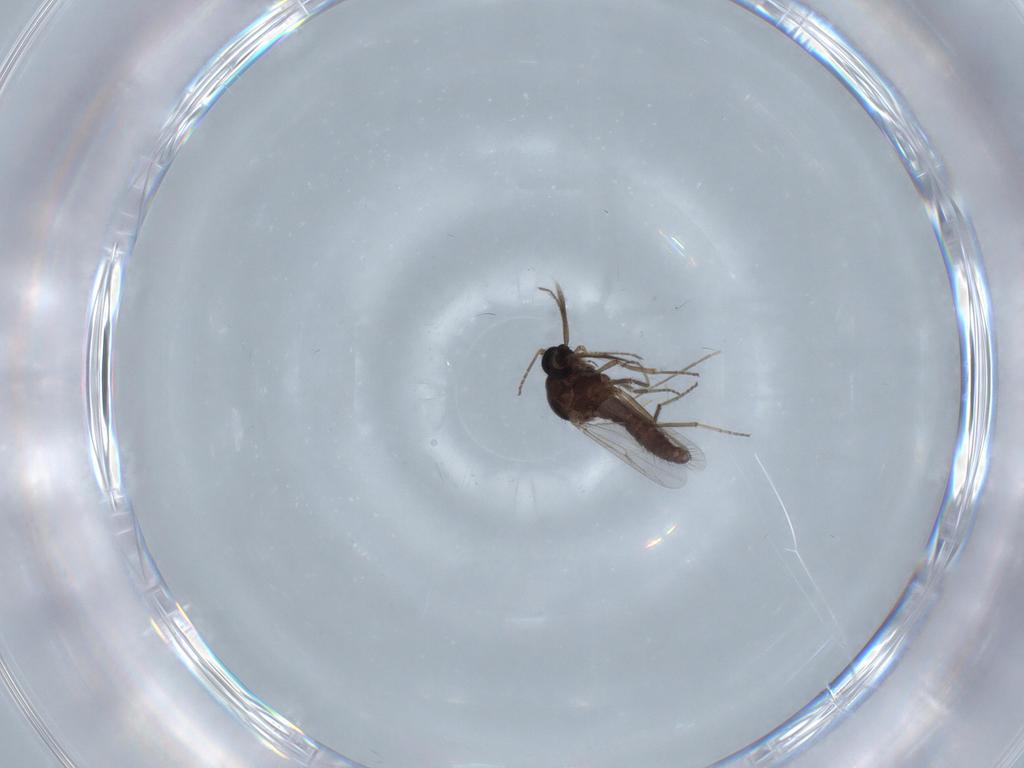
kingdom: Animalia
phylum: Arthropoda
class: Insecta
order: Diptera
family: Ceratopogonidae
